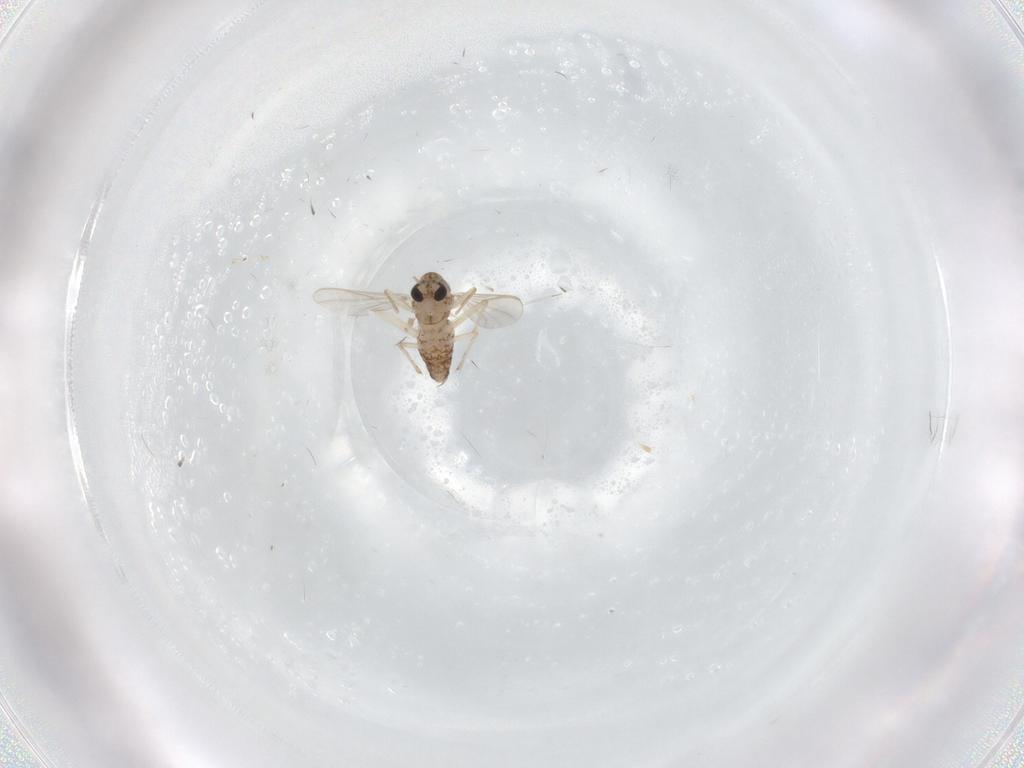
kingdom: Animalia
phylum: Arthropoda
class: Insecta
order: Diptera
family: Chironomidae
